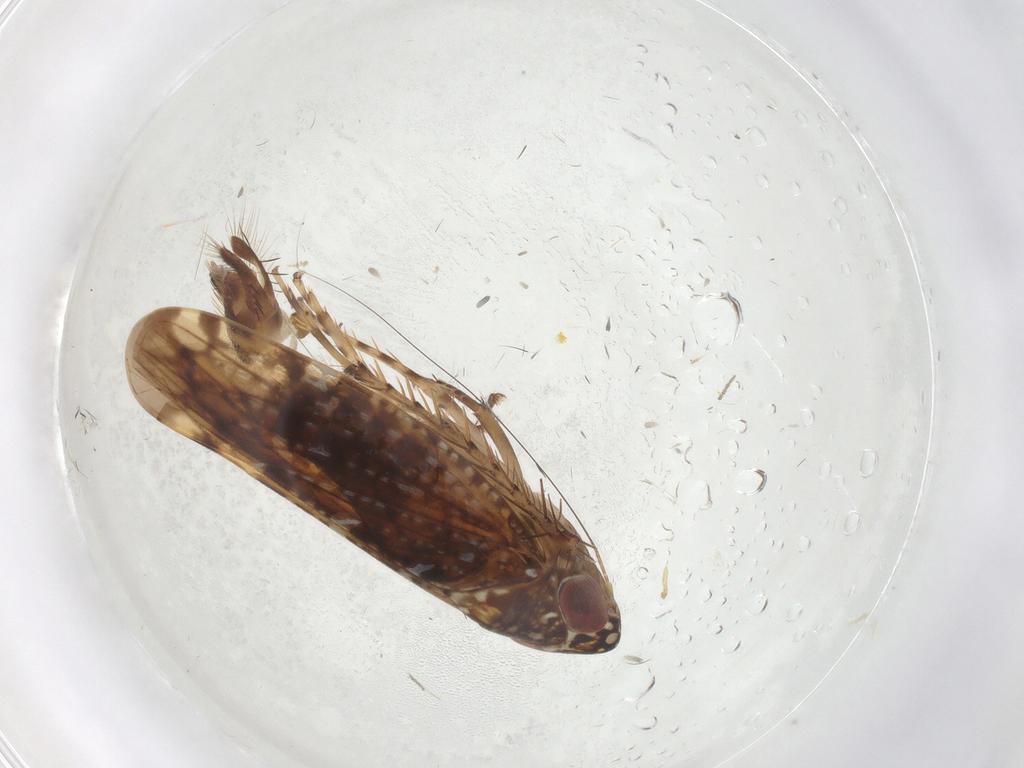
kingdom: Animalia
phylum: Arthropoda
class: Insecta
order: Hemiptera
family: Cicadellidae
